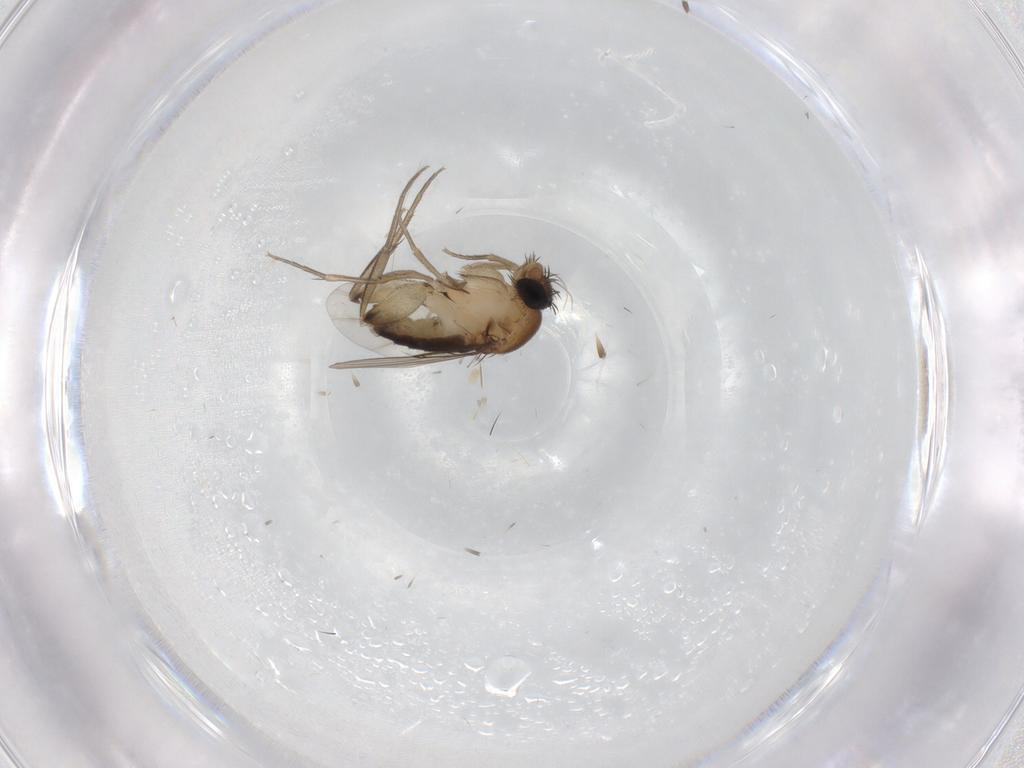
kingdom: Animalia
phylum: Arthropoda
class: Insecta
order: Diptera
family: Phoridae
